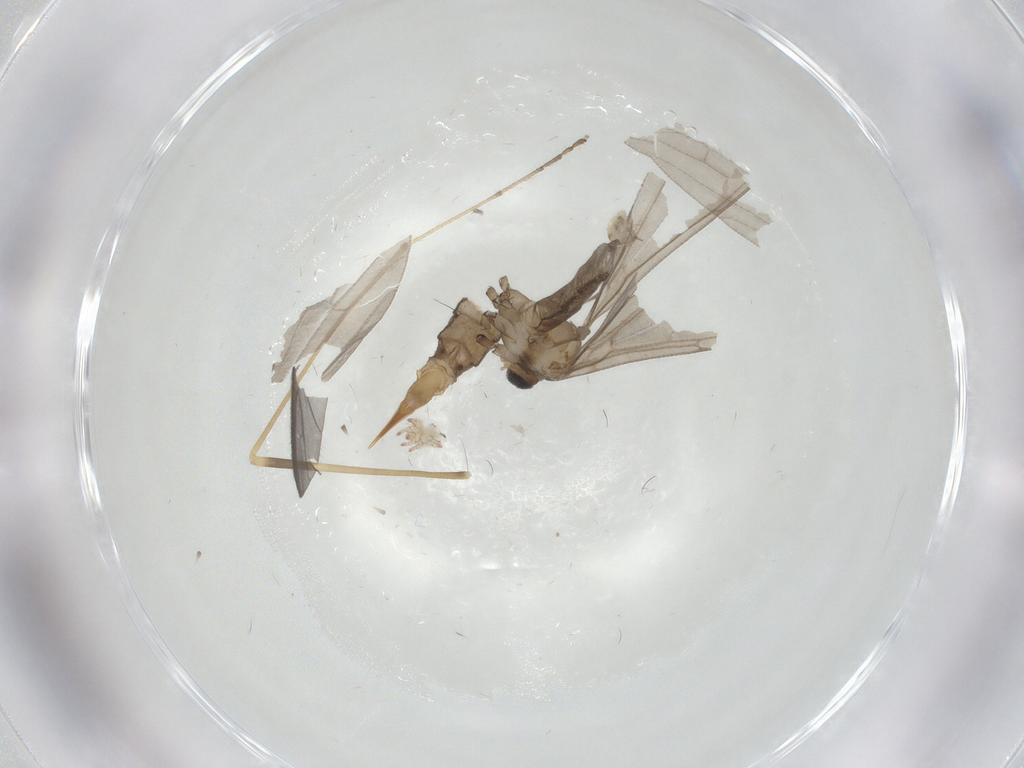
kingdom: Animalia
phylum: Arthropoda
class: Insecta
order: Diptera
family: Limoniidae
